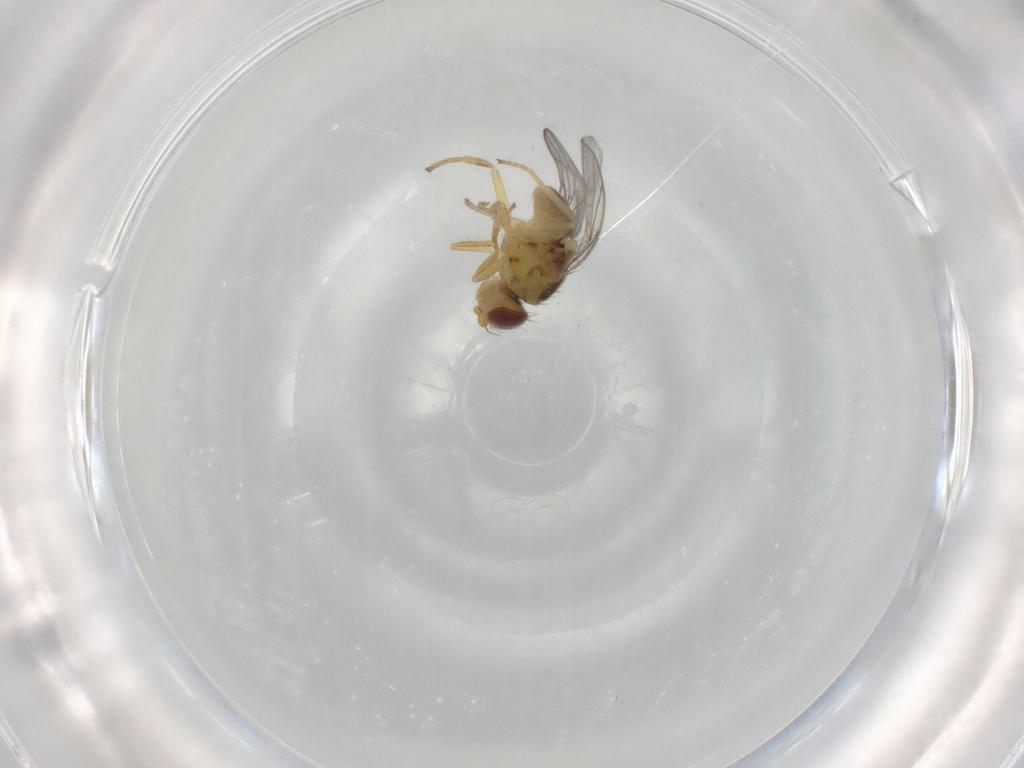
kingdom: Animalia
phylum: Arthropoda
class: Insecta
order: Diptera
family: Chloropidae
